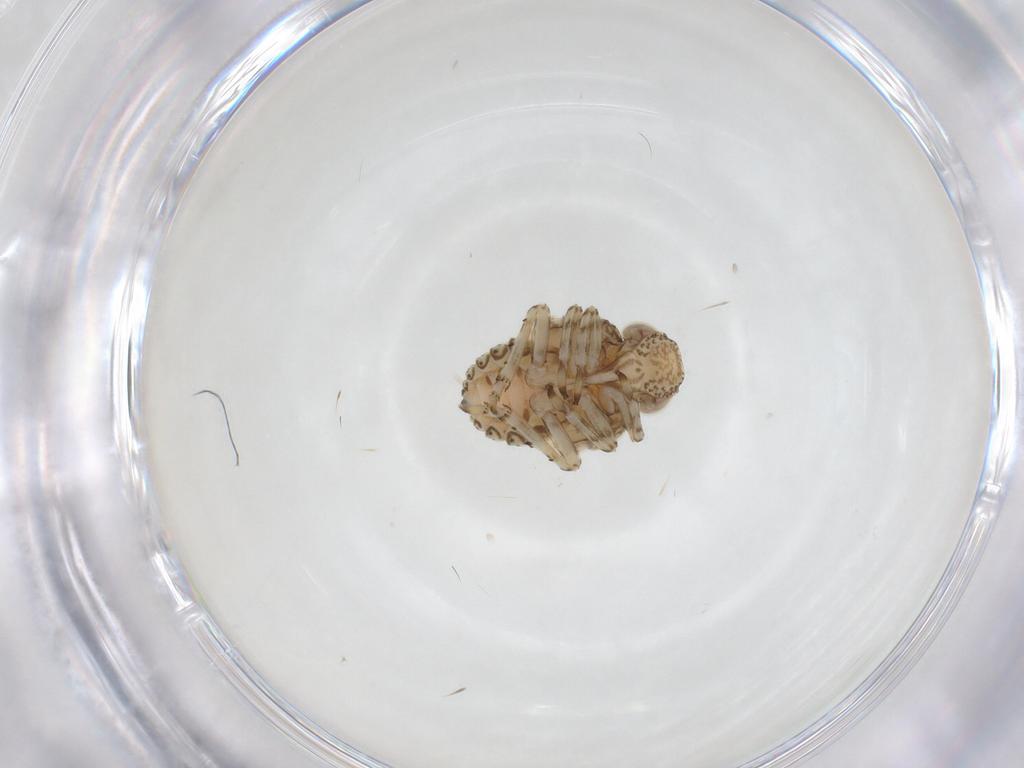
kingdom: Animalia
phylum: Arthropoda
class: Insecta
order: Hemiptera
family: Issidae
